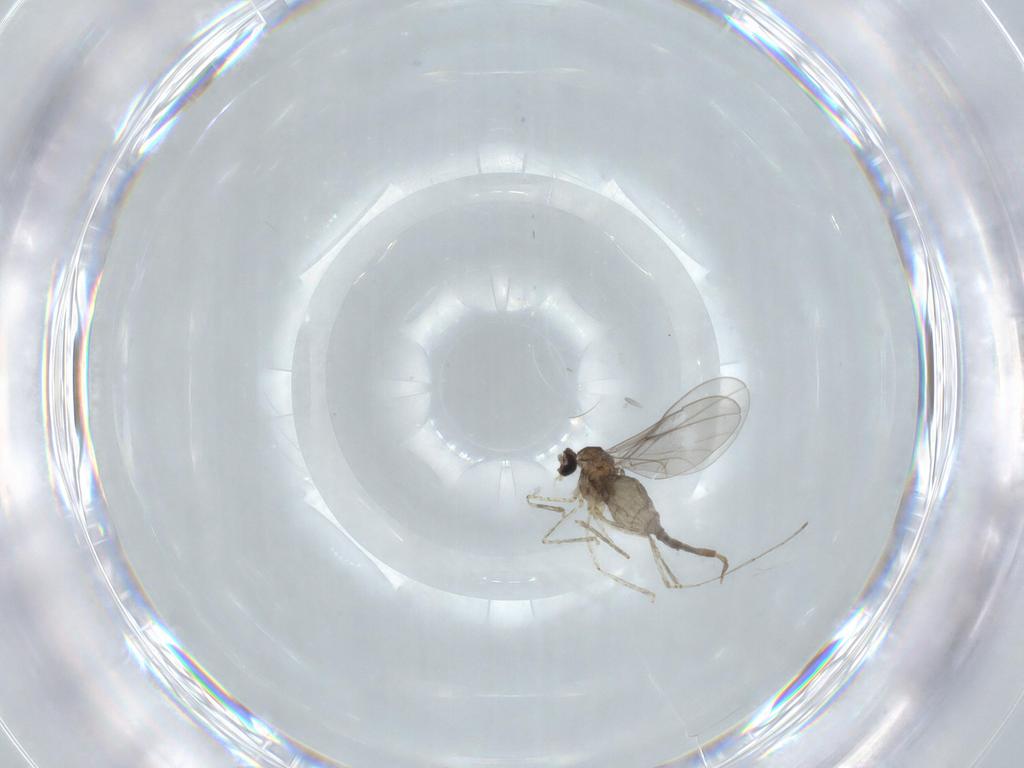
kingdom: Animalia
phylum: Arthropoda
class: Insecta
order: Diptera
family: Cecidomyiidae
